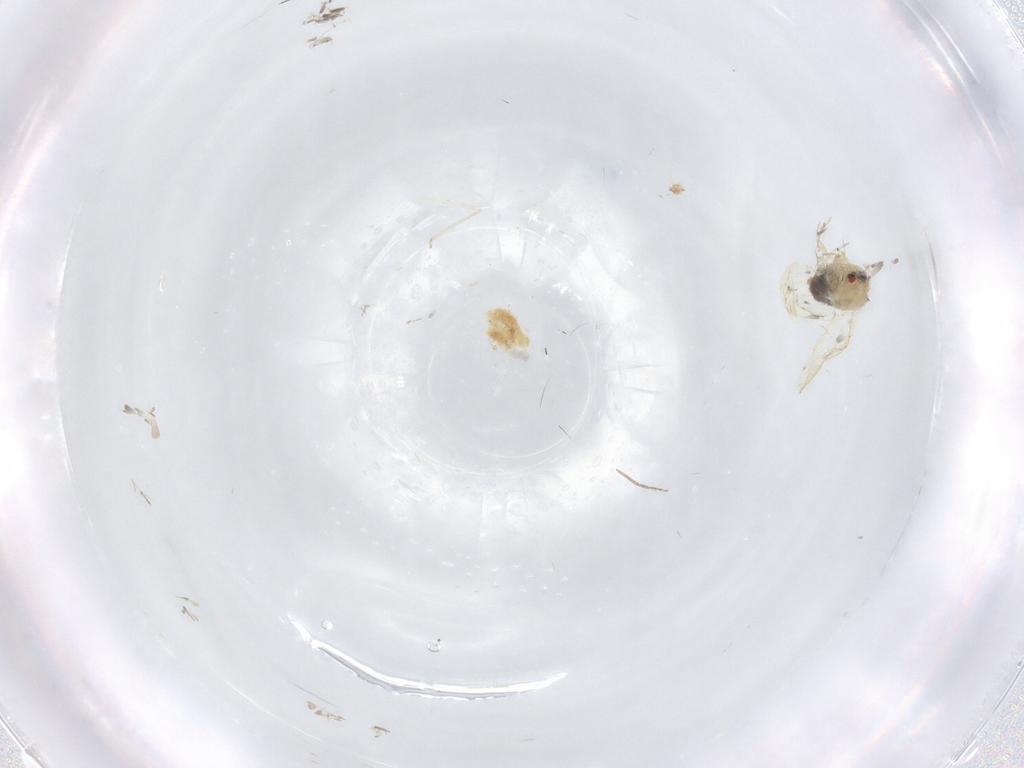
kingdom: Animalia
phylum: Arthropoda
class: Insecta
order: Diptera
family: Chironomidae
